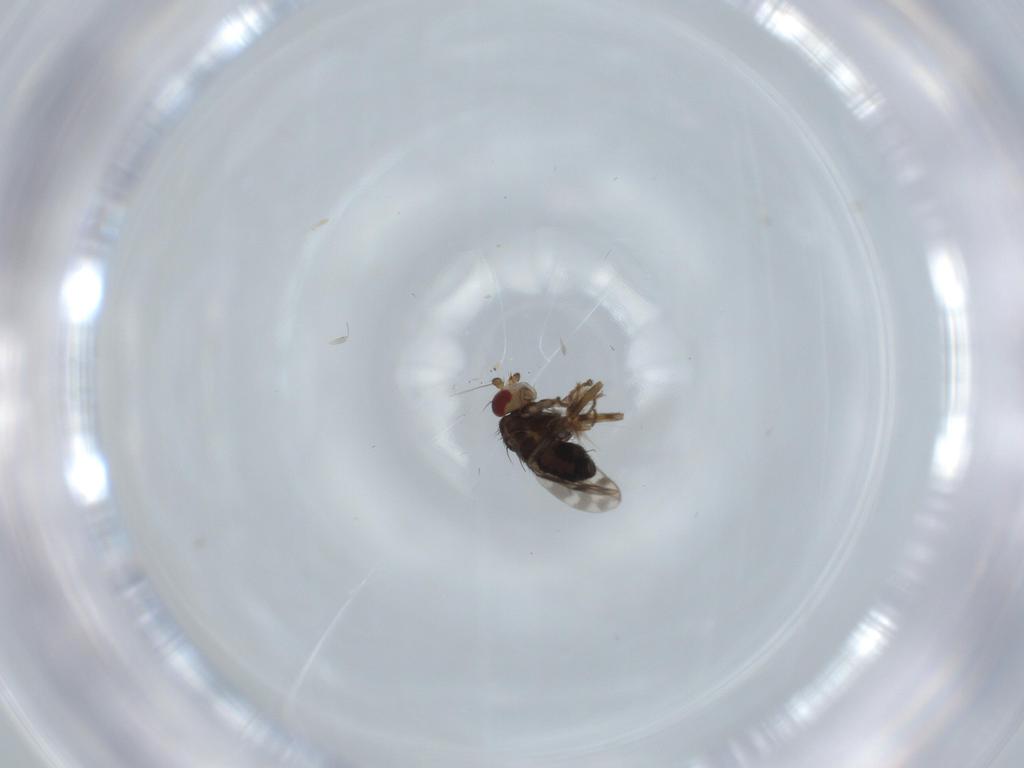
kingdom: Animalia
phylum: Arthropoda
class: Insecta
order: Diptera
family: Sphaeroceridae
